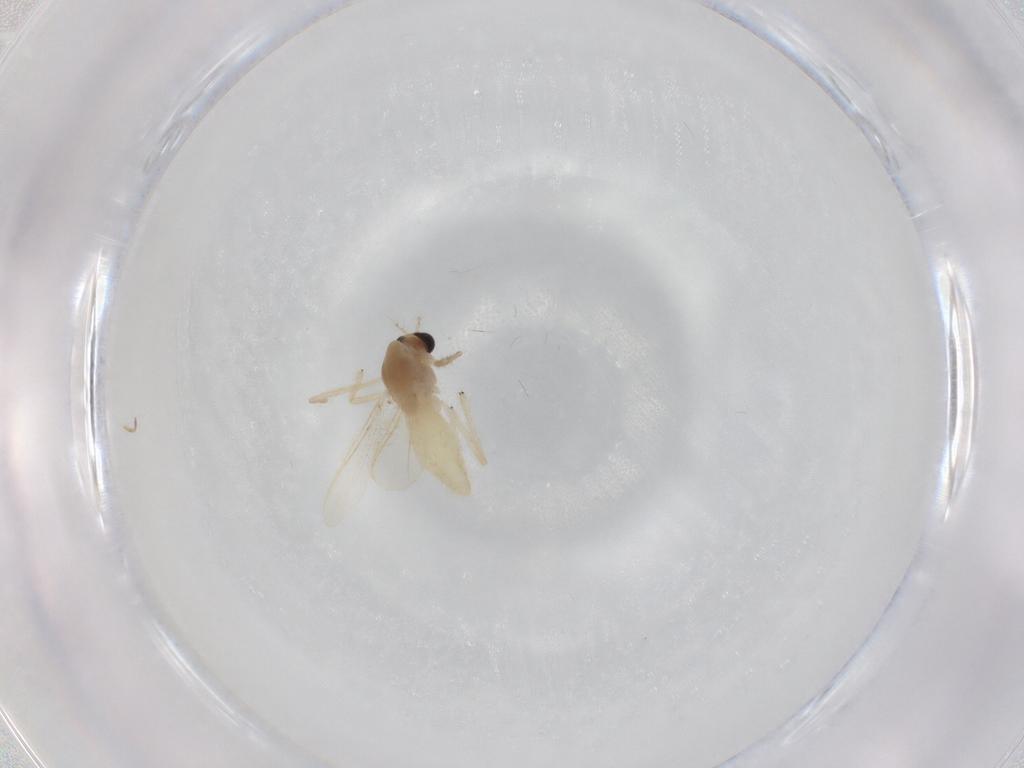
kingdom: Animalia
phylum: Arthropoda
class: Insecta
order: Diptera
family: Chironomidae
